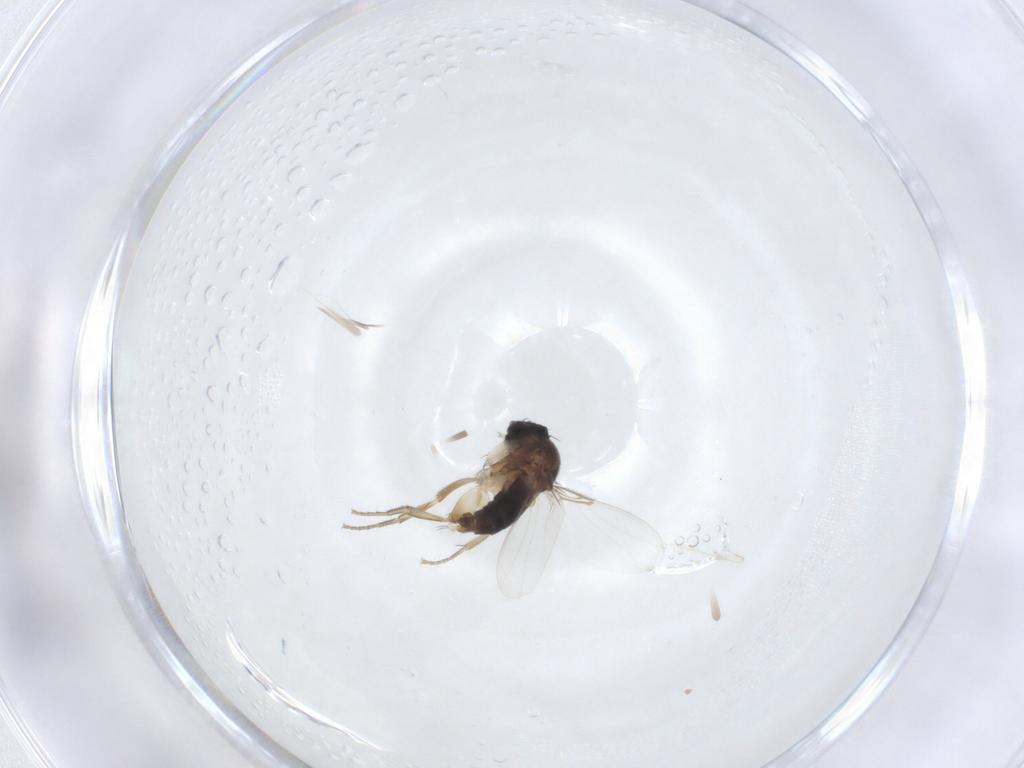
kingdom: Animalia
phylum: Arthropoda
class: Insecta
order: Diptera
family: Phoridae
